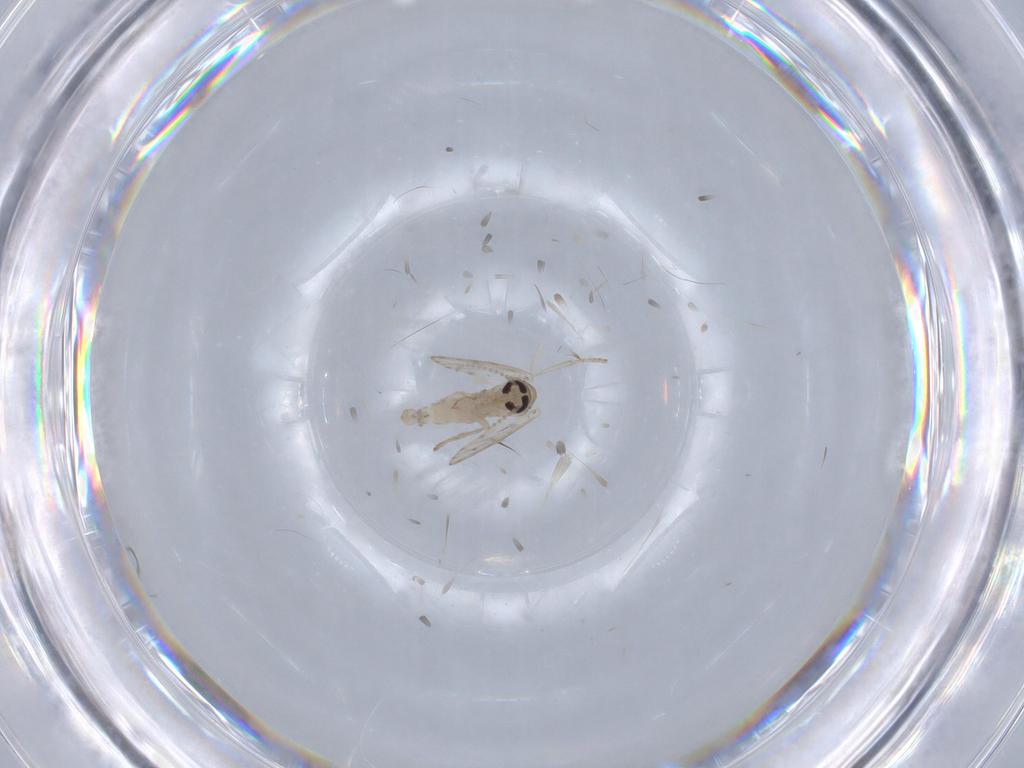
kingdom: Animalia
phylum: Arthropoda
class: Insecta
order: Diptera
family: Psychodidae
